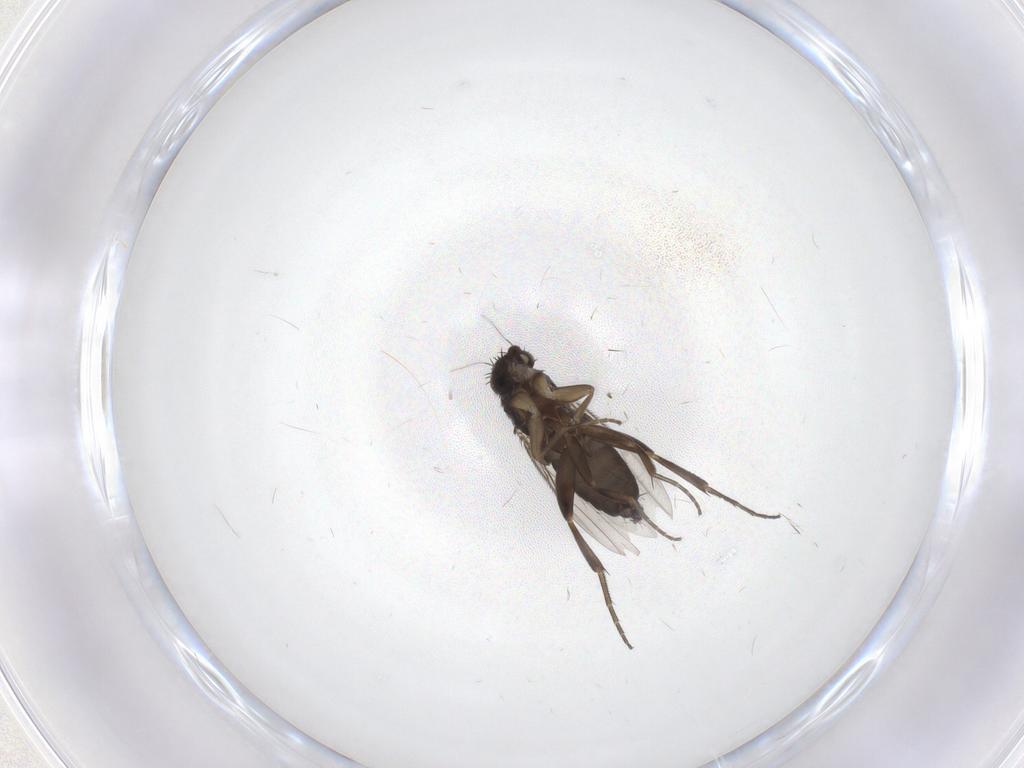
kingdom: Animalia
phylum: Arthropoda
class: Insecta
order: Diptera
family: Phoridae
